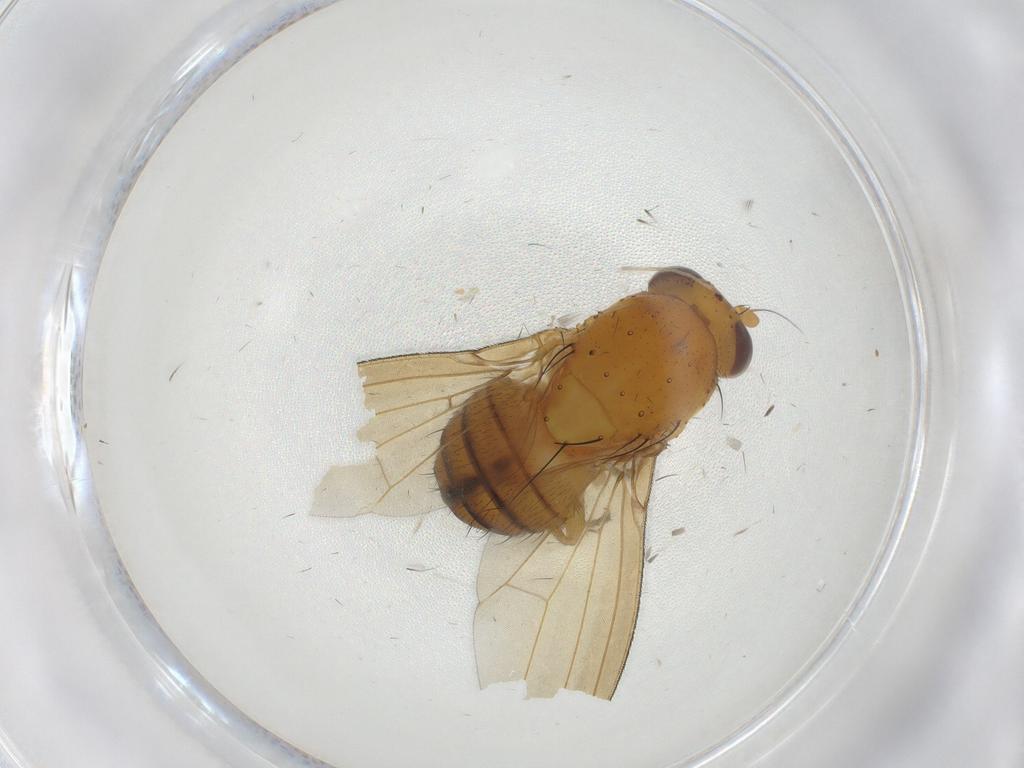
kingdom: Animalia
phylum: Arthropoda
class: Insecta
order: Diptera
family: Cecidomyiidae
